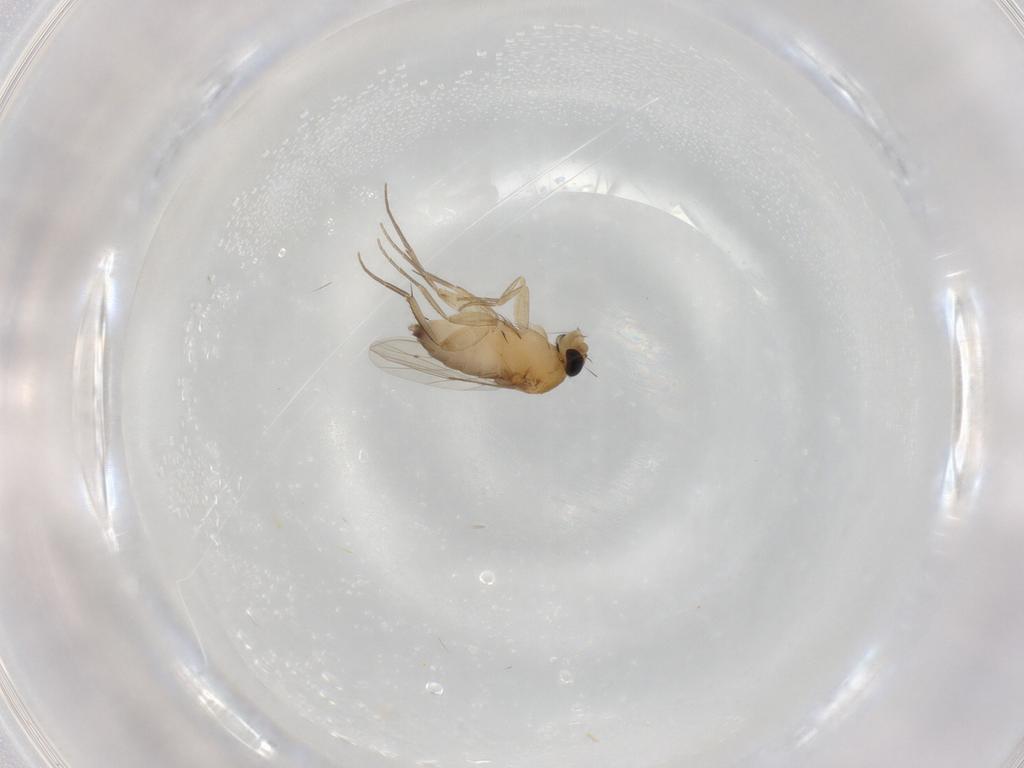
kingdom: Animalia
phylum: Arthropoda
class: Insecta
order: Diptera
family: Phoridae
